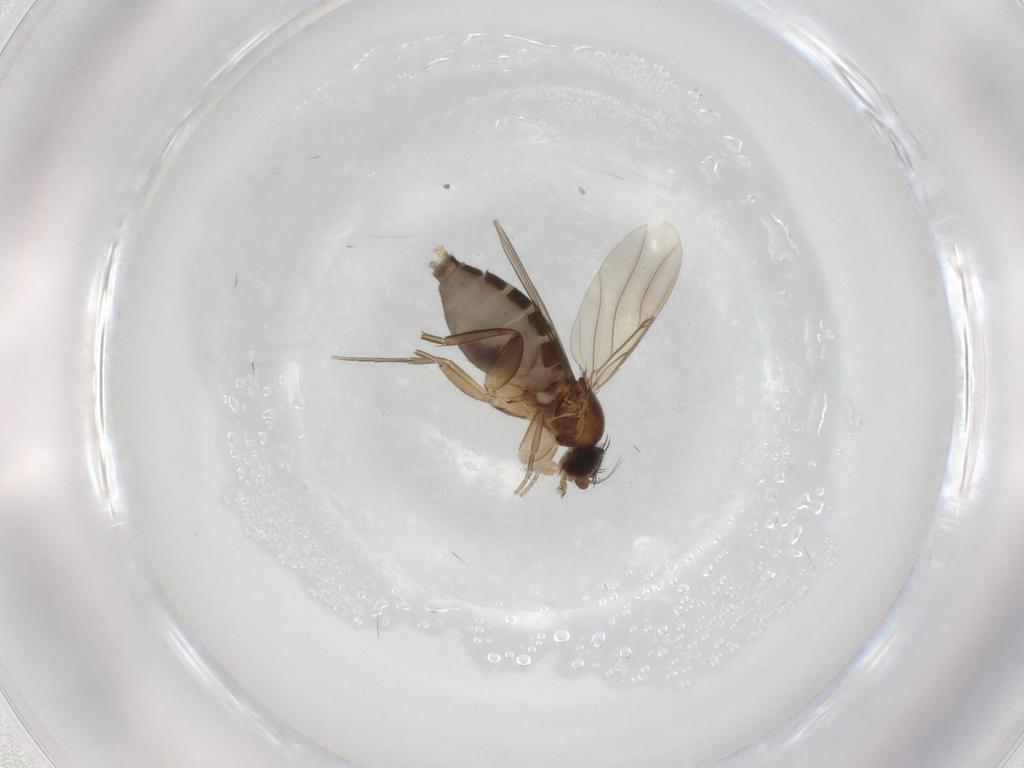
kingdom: Animalia
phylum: Arthropoda
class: Insecta
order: Diptera
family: Phoridae
